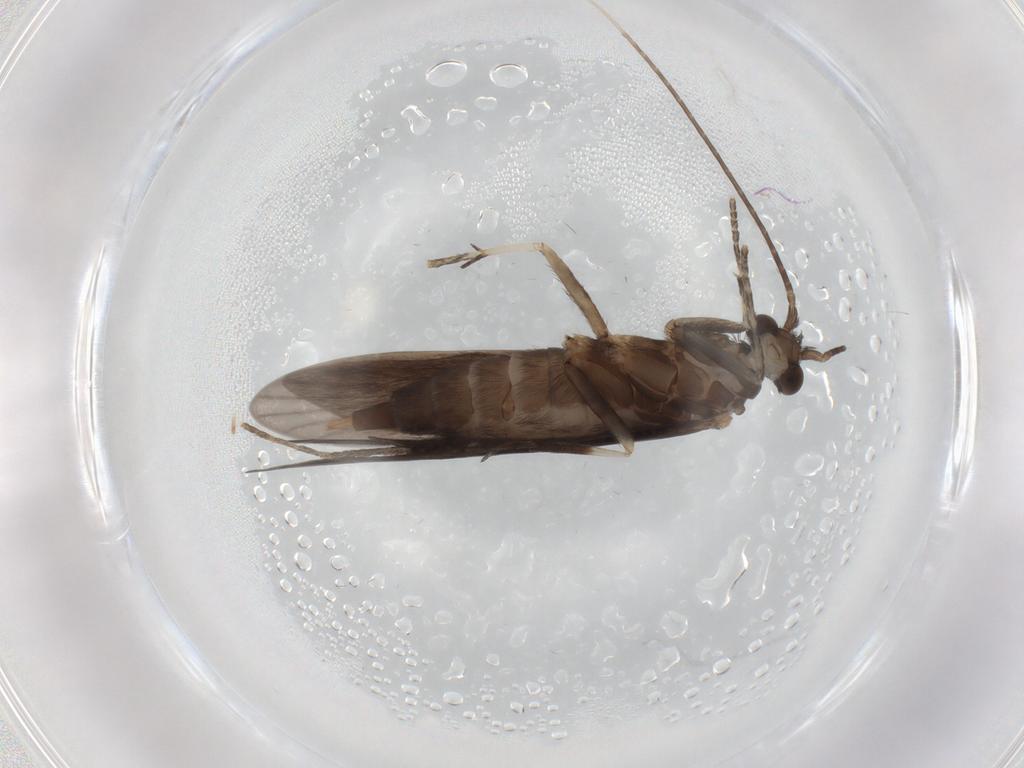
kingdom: Animalia
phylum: Arthropoda
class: Insecta
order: Trichoptera
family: Xiphocentronidae
